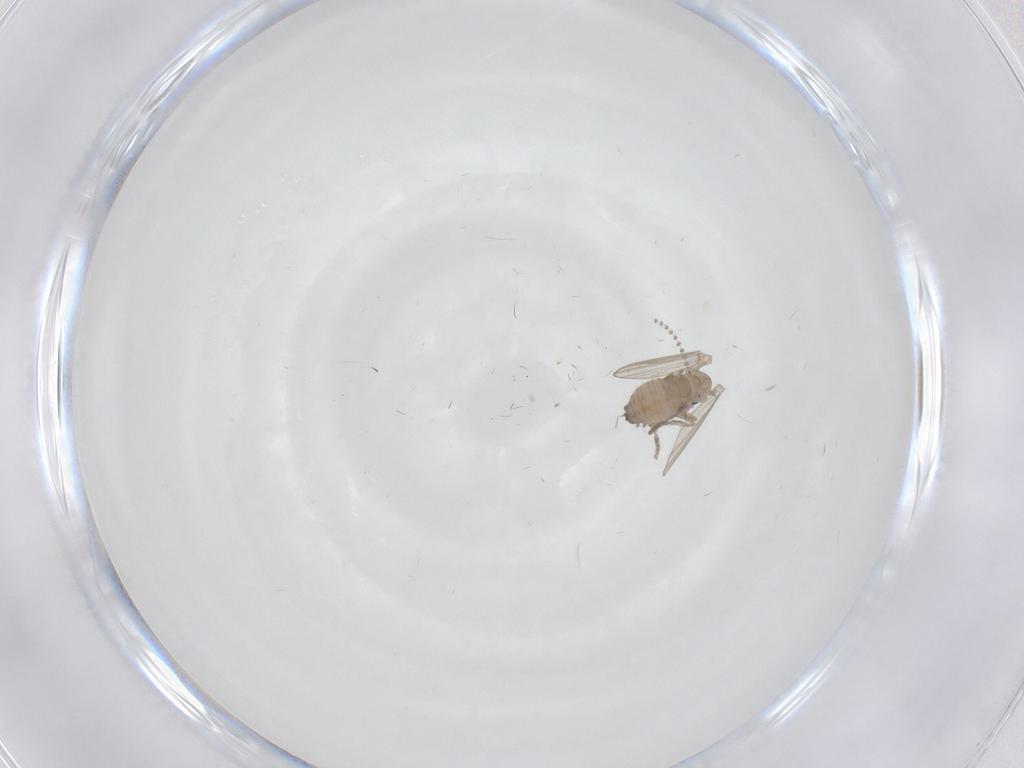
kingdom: Animalia
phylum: Arthropoda
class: Insecta
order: Diptera
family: Psychodidae
